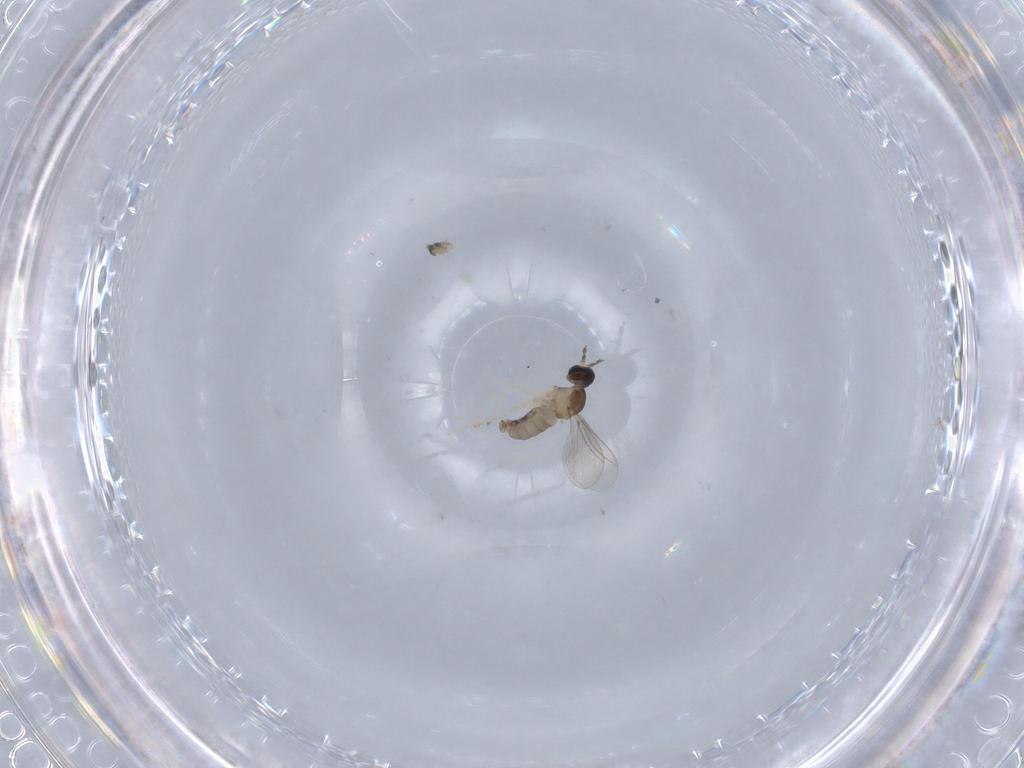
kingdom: Animalia
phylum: Arthropoda
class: Insecta
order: Diptera
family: Cecidomyiidae
